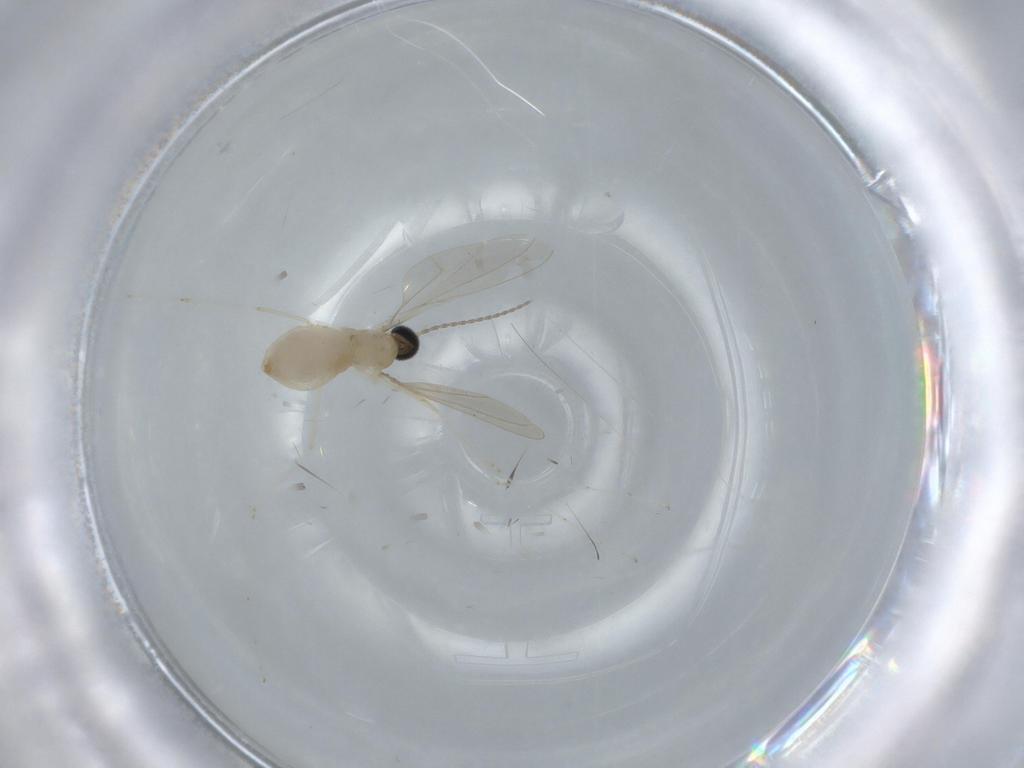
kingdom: Animalia
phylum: Arthropoda
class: Insecta
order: Diptera
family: Cecidomyiidae
